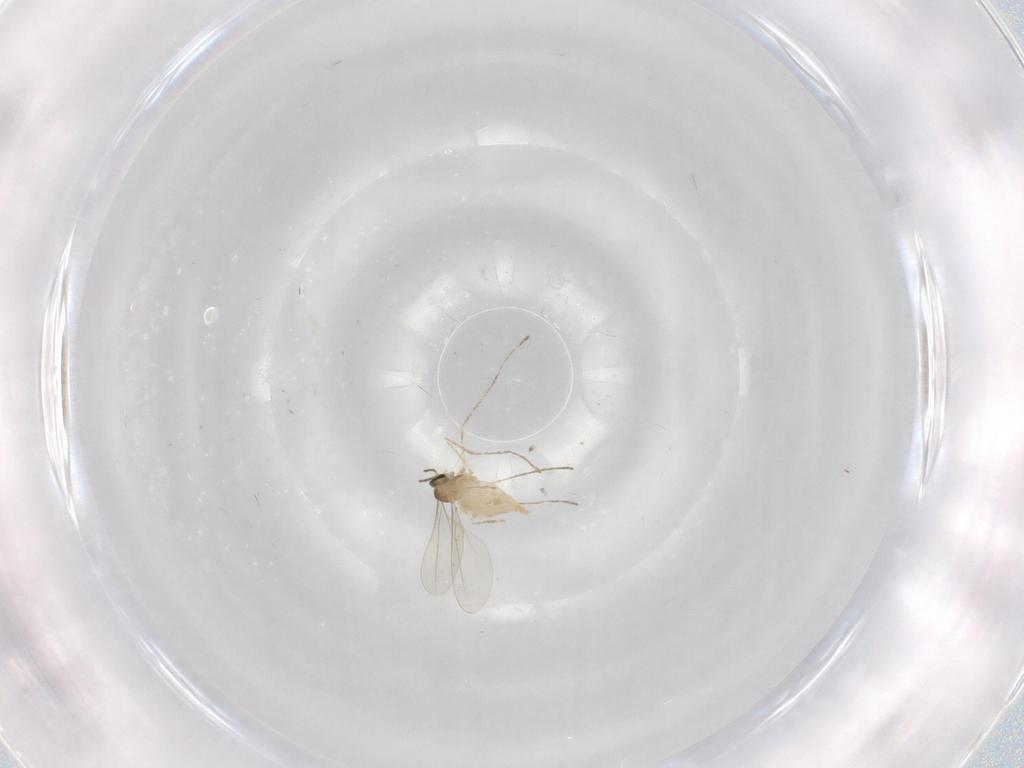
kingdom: Animalia
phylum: Arthropoda
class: Insecta
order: Diptera
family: Cecidomyiidae
